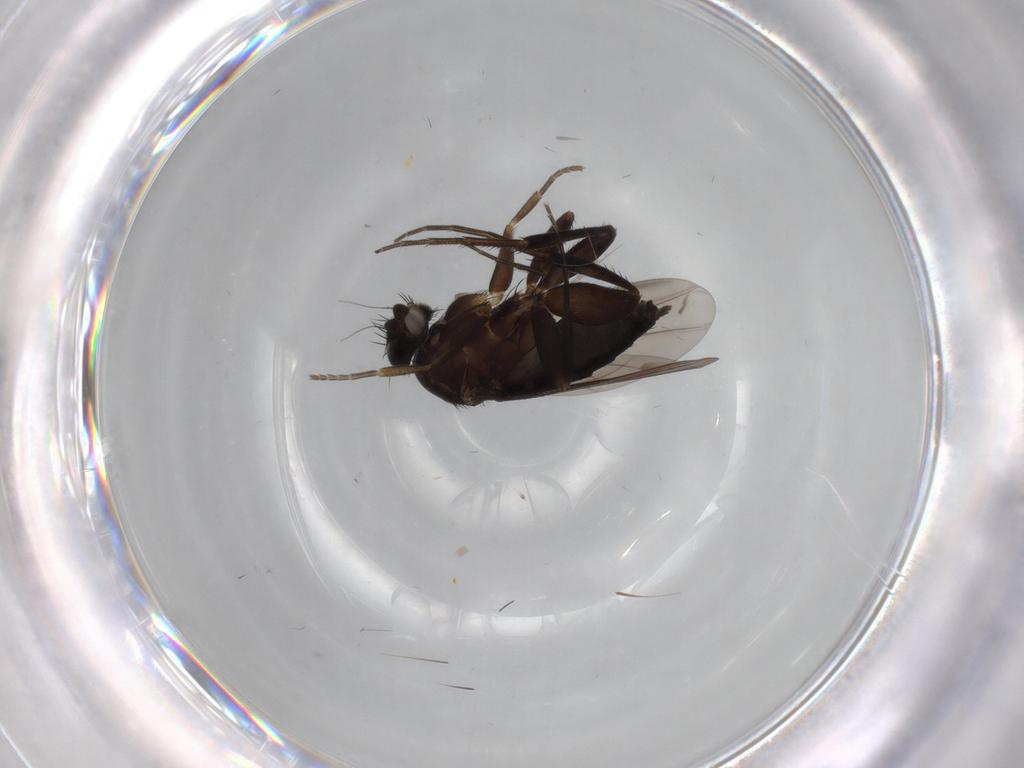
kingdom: Animalia
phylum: Arthropoda
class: Insecta
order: Diptera
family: Phoridae
